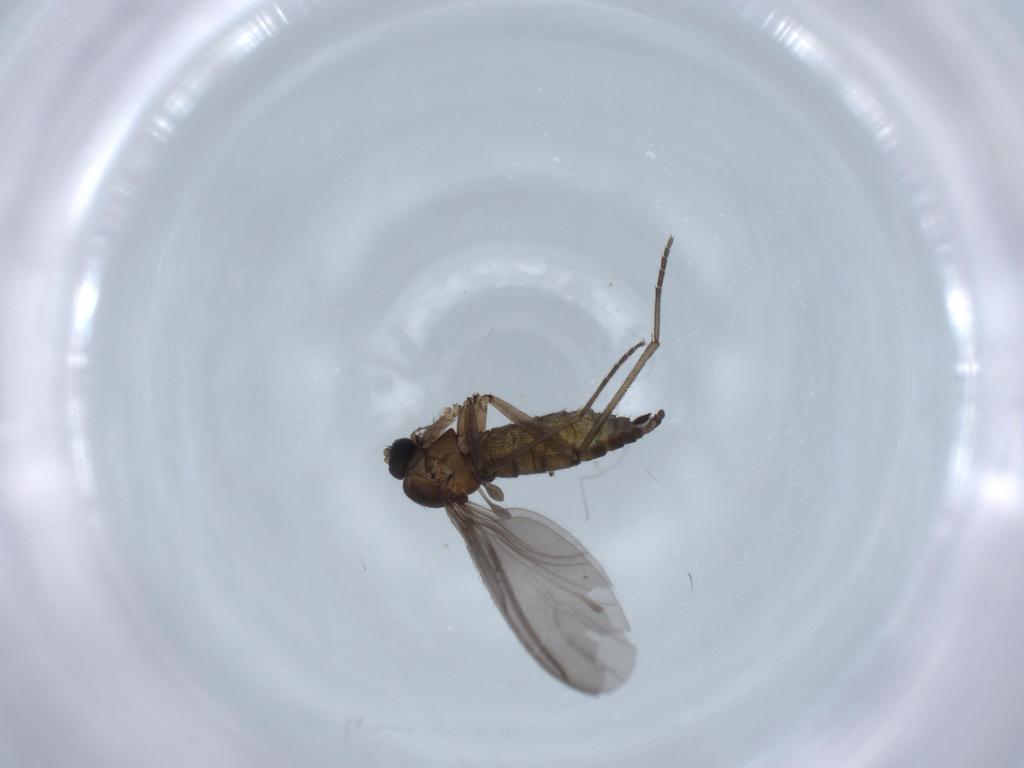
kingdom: Animalia
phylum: Arthropoda
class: Insecta
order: Diptera
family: Sciaridae
